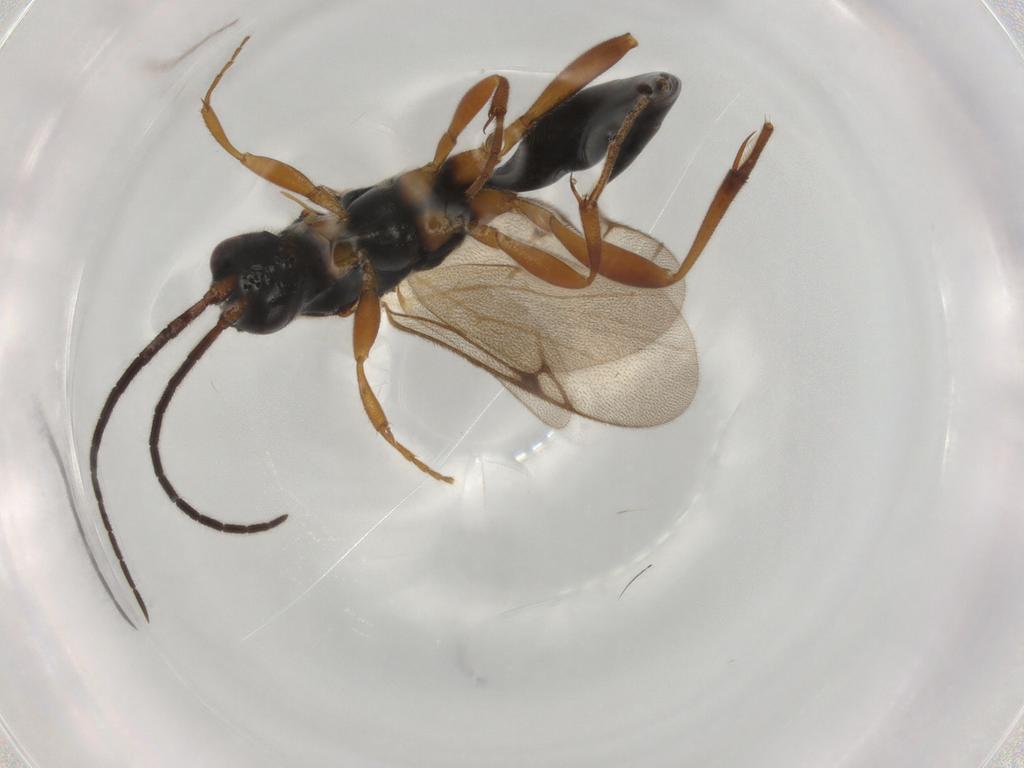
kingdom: Animalia
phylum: Arthropoda
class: Insecta
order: Hymenoptera
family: Proctotrupidae
